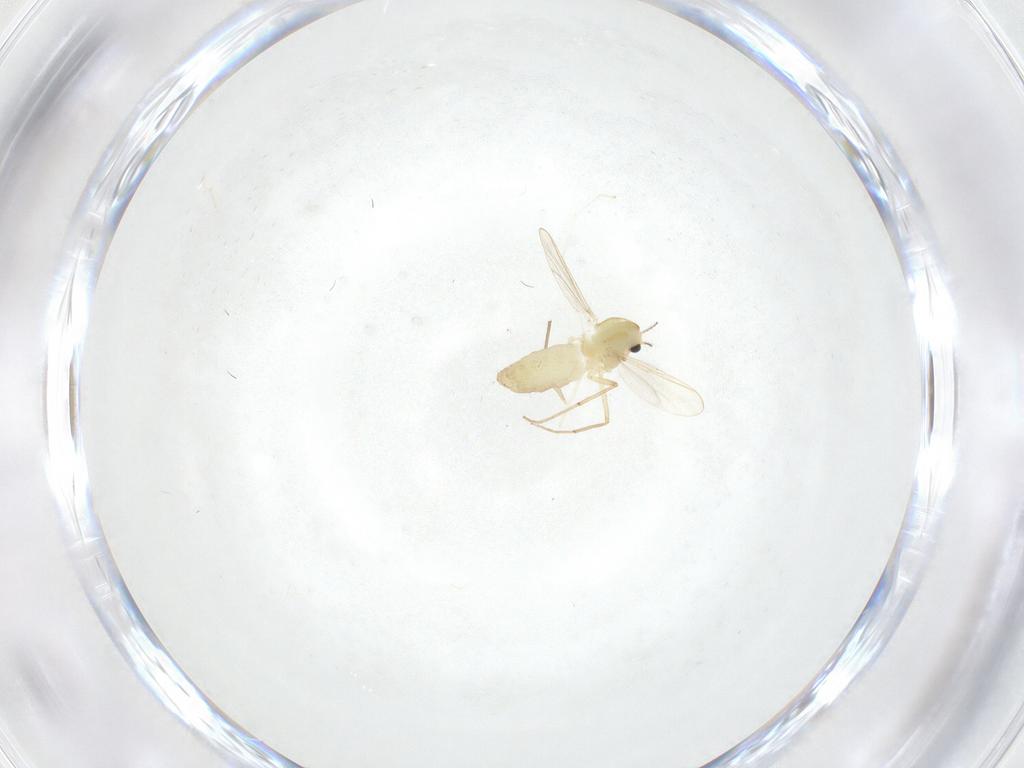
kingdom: Animalia
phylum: Arthropoda
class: Insecta
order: Diptera
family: Chironomidae
